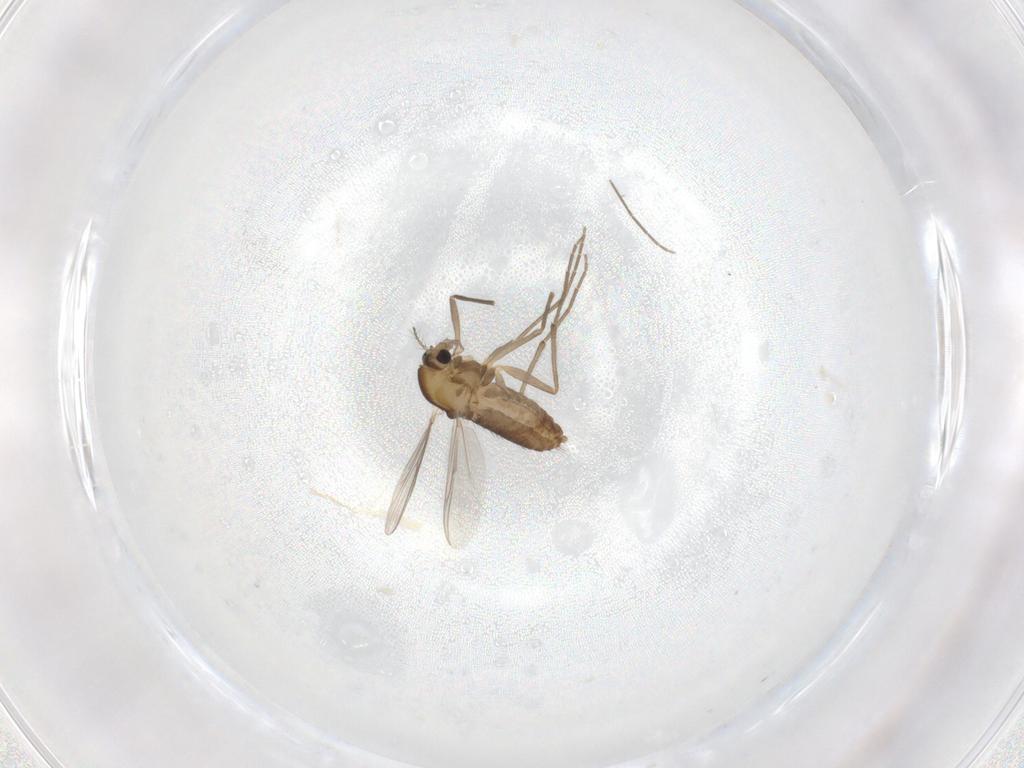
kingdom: Animalia
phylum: Arthropoda
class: Insecta
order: Diptera
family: Chironomidae
